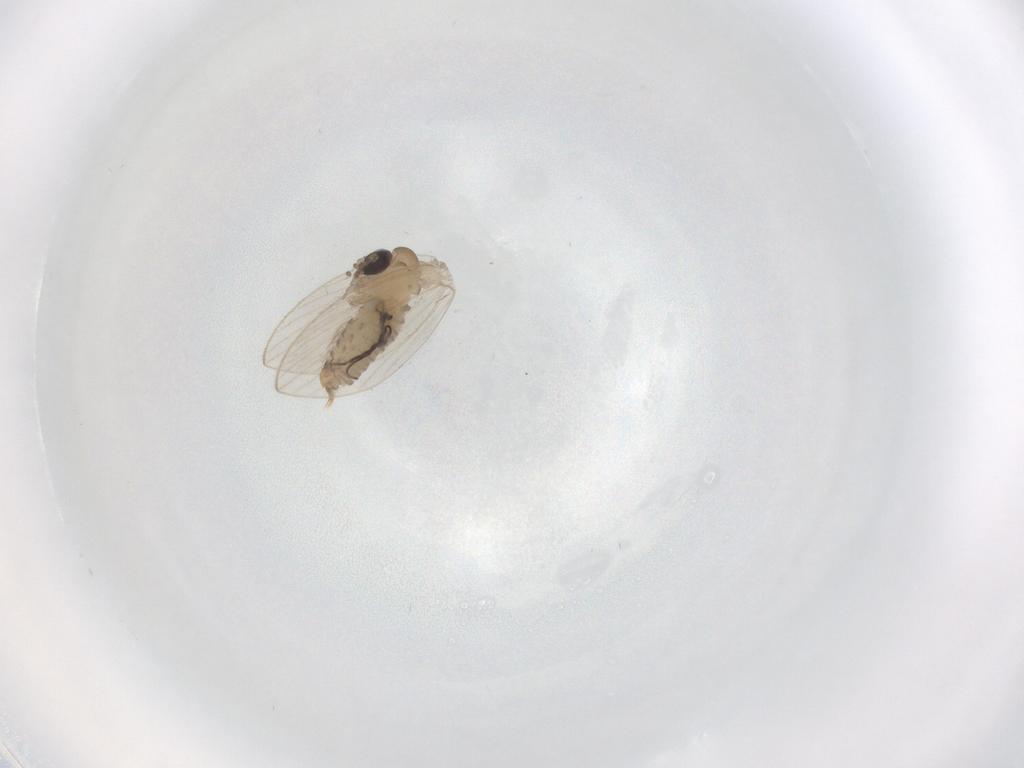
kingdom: Animalia
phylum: Arthropoda
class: Insecta
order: Diptera
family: Psychodidae
